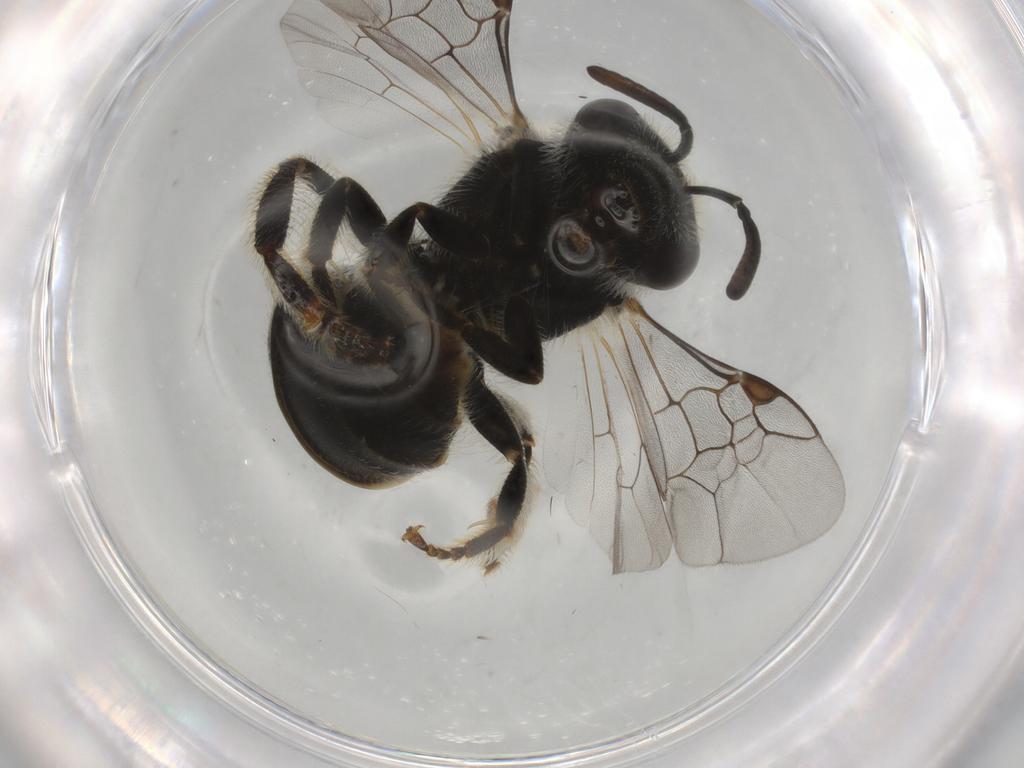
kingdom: Animalia
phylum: Arthropoda
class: Insecta
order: Hymenoptera
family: Halictidae
